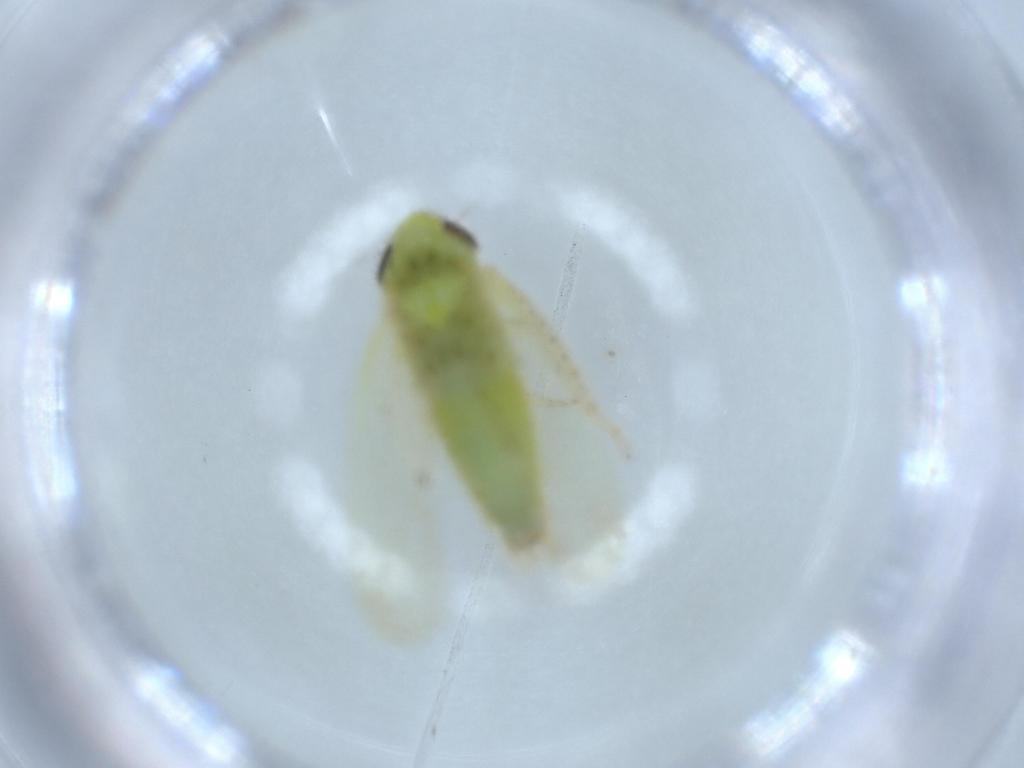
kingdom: Animalia
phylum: Arthropoda
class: Insecta
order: Hemiptera
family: Cicadellidae
